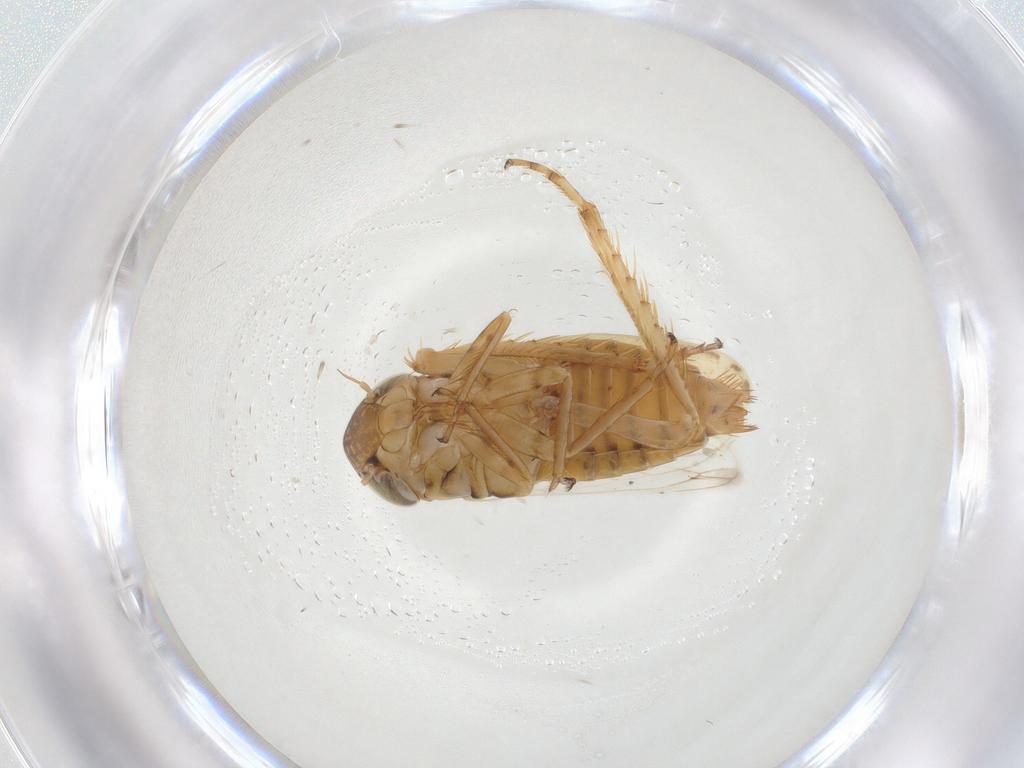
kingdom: Animalia
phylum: Arthropoda
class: Insecta
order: Hemiptera
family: Cicadellidae
